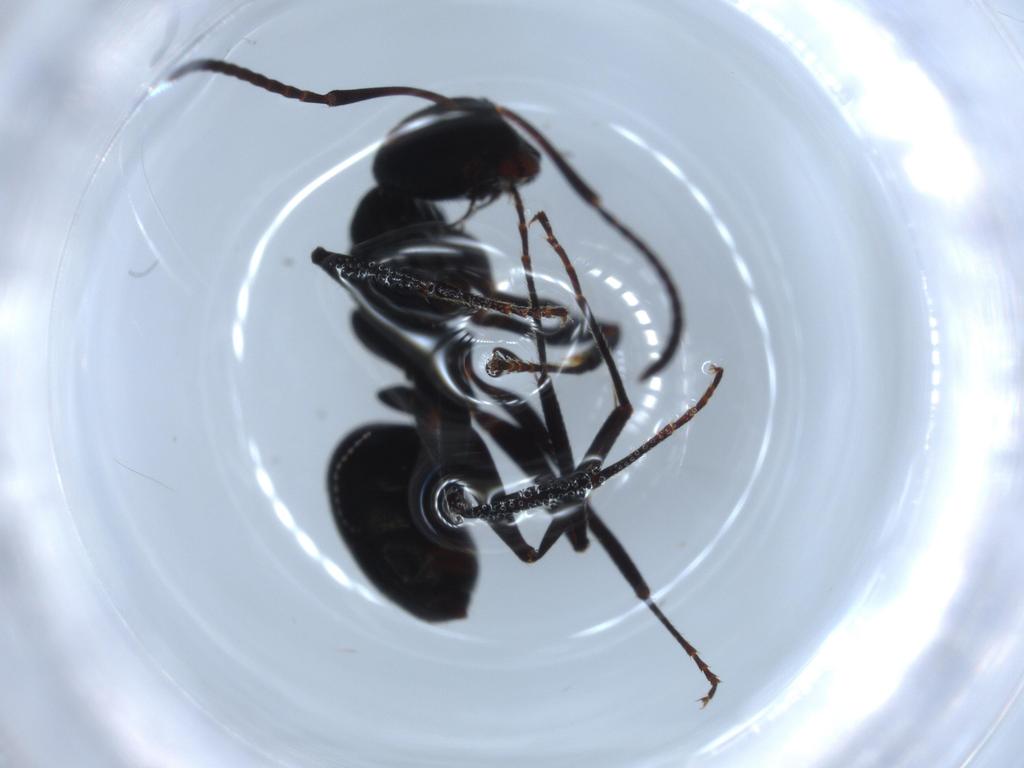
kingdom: Animalia
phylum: Arthropoda
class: Insecta
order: Hymenoptera
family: Formicidae
